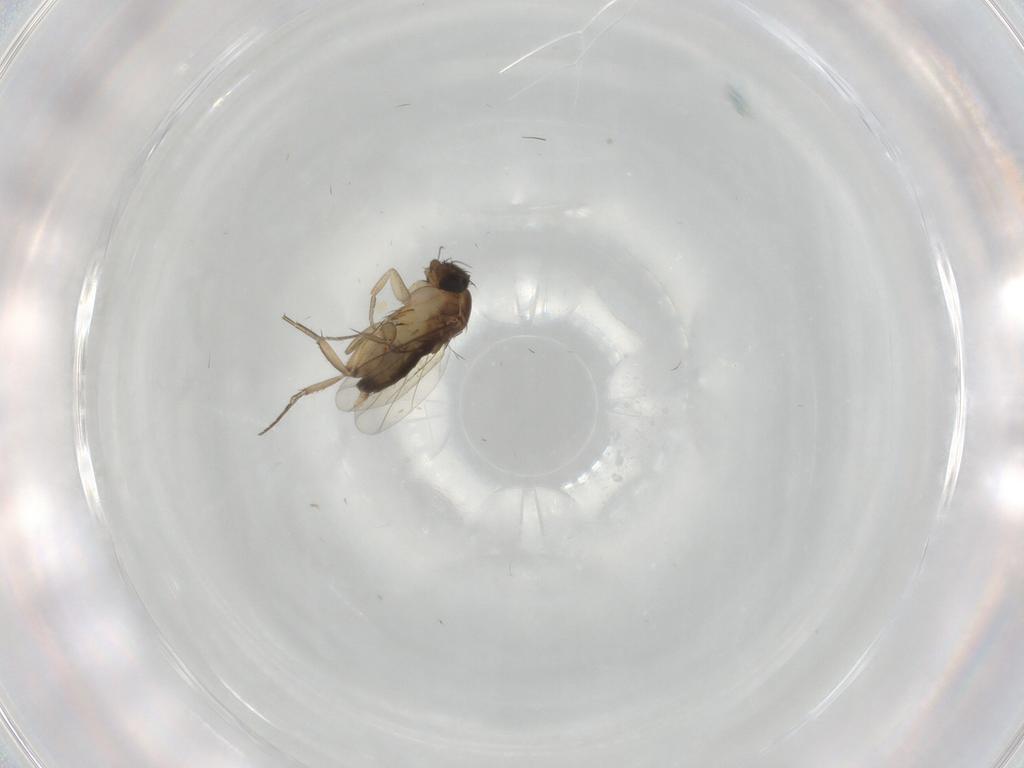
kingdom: Animalia
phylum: Arthropoda
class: Insecta
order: Diptera
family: Phoridae
